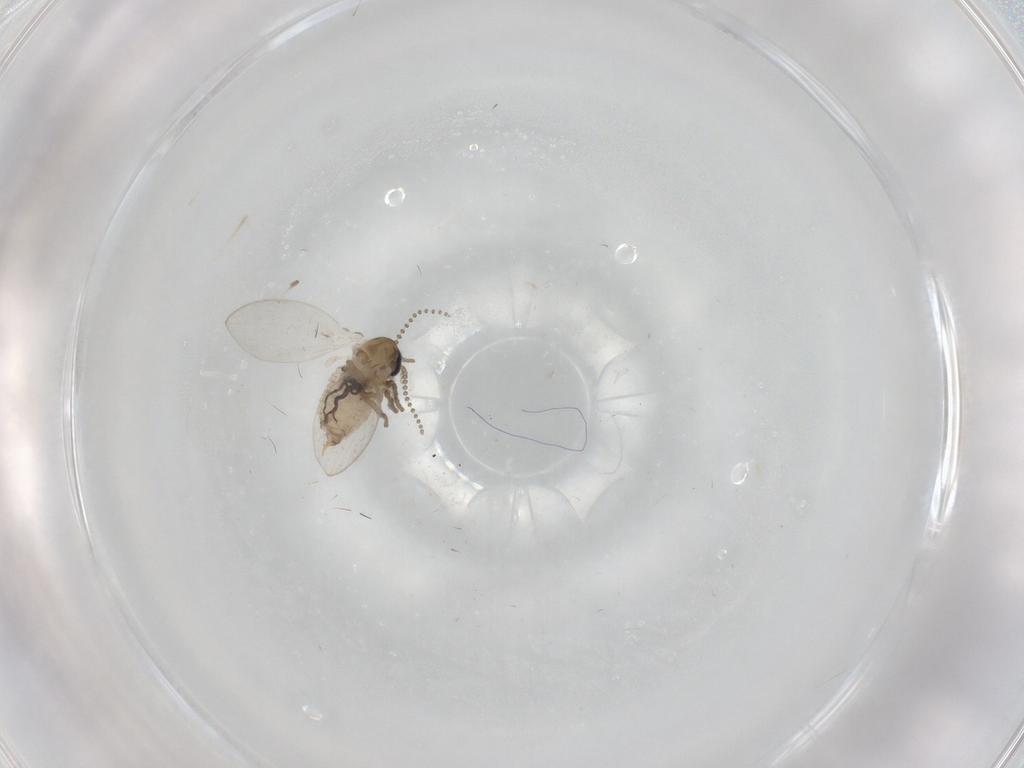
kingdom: Animalia
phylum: Arthropoda
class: Insecta
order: Diptera
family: Psychodidae
